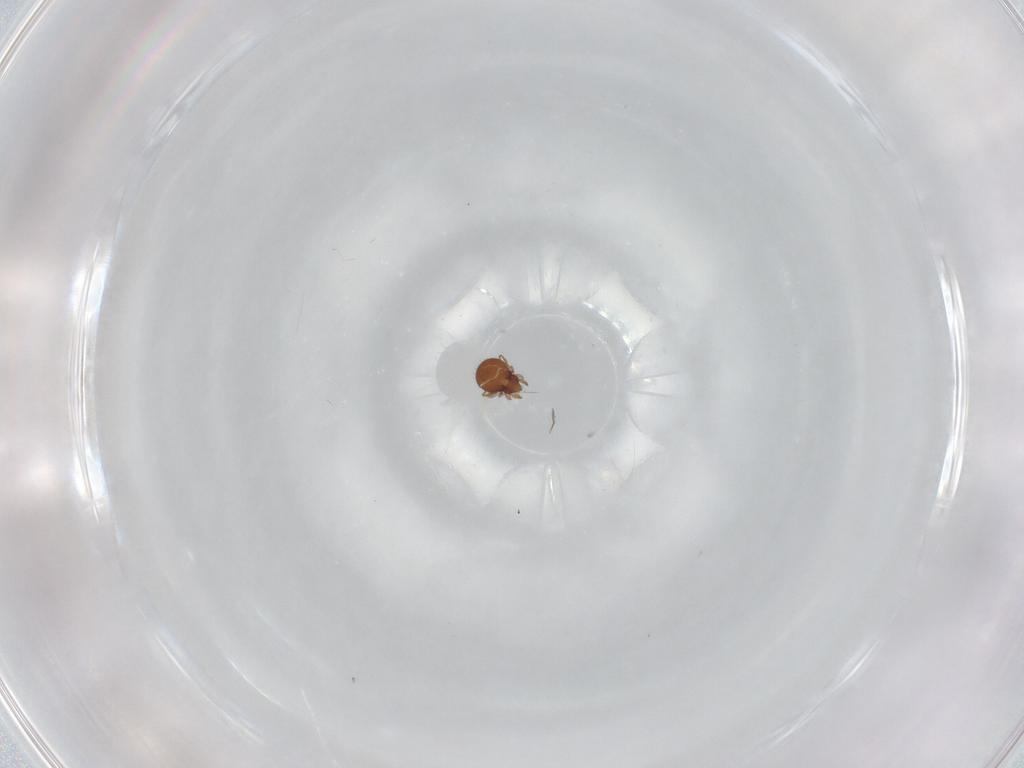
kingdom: Animalia
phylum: Arthropoda
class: Arachnida
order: Sarcoptiformes
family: Oribatulidae
